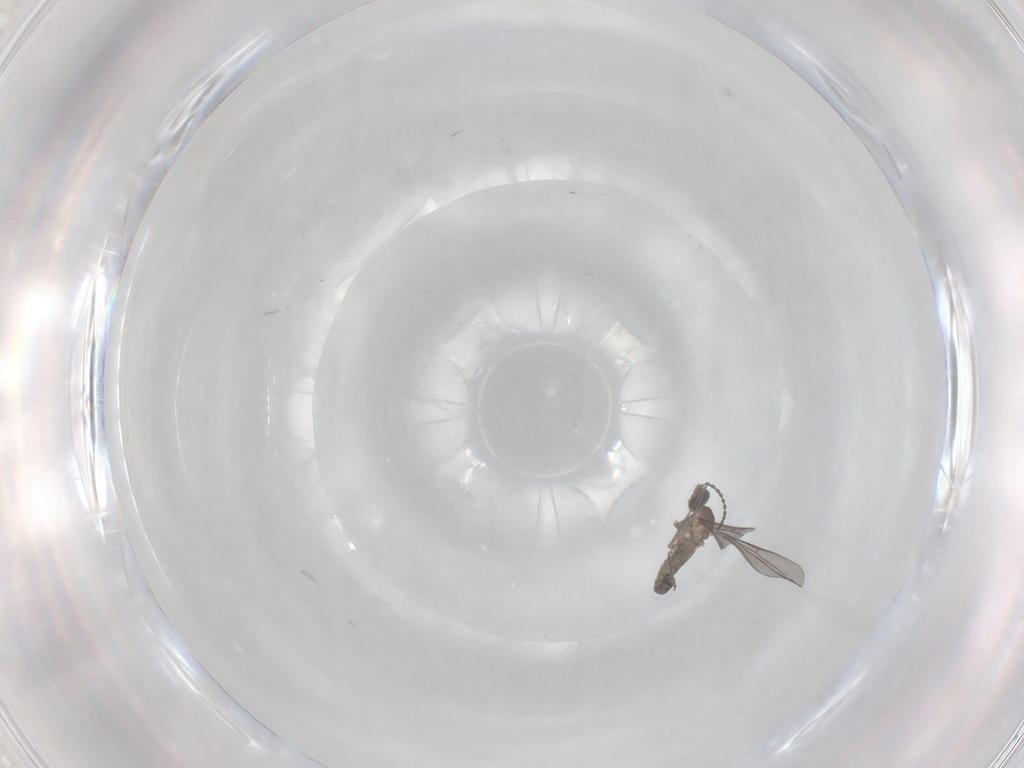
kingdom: Animalia
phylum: Arthropoda
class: Insecta
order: Diptera
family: Cecidomyiidae
